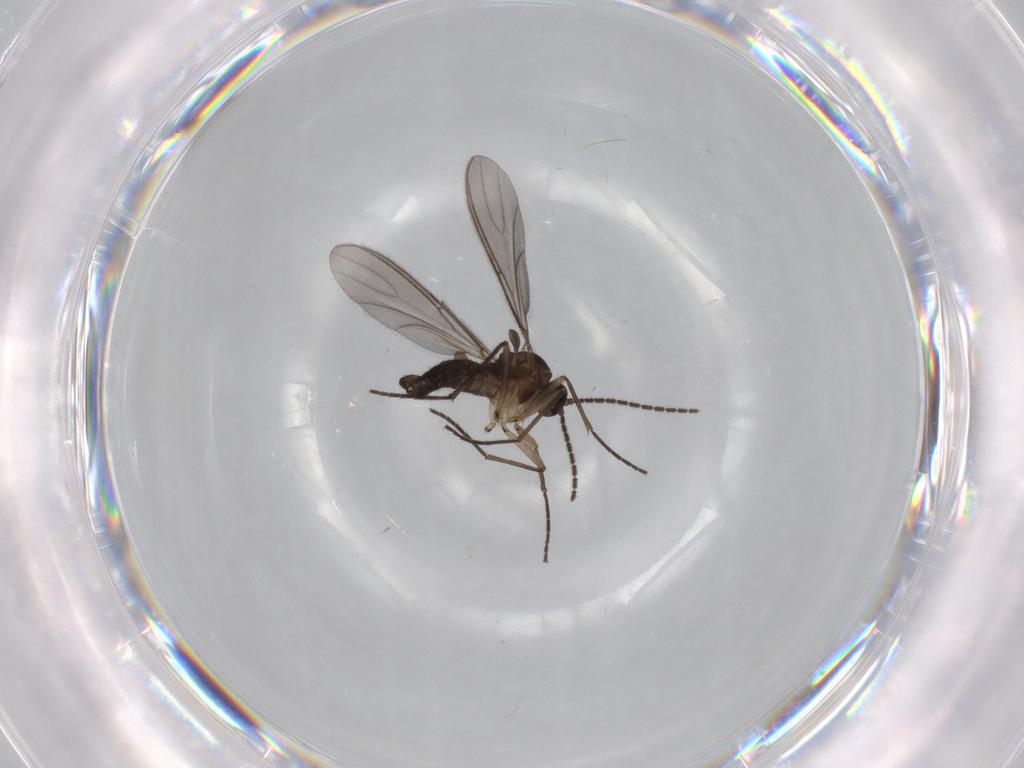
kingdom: Animalia
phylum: Arthropoda
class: Insecta
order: Diptera
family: Sciaridae
